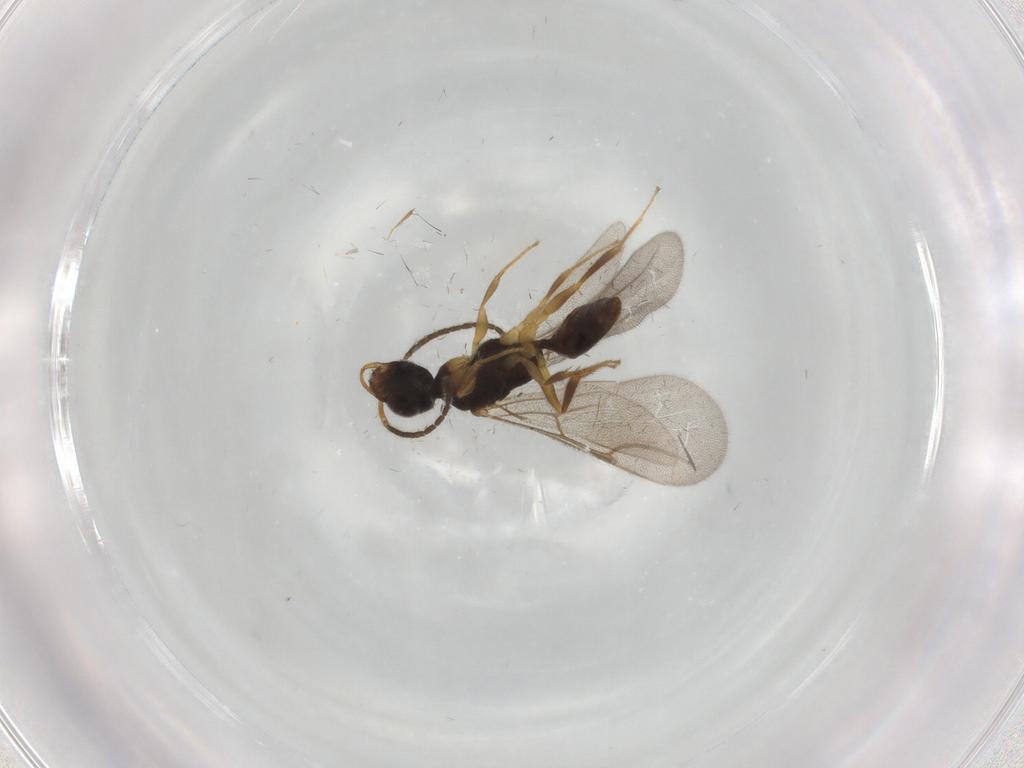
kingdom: Animalia
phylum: Arthropoda
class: Insecta
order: Hymenoptera
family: Bethylidae
